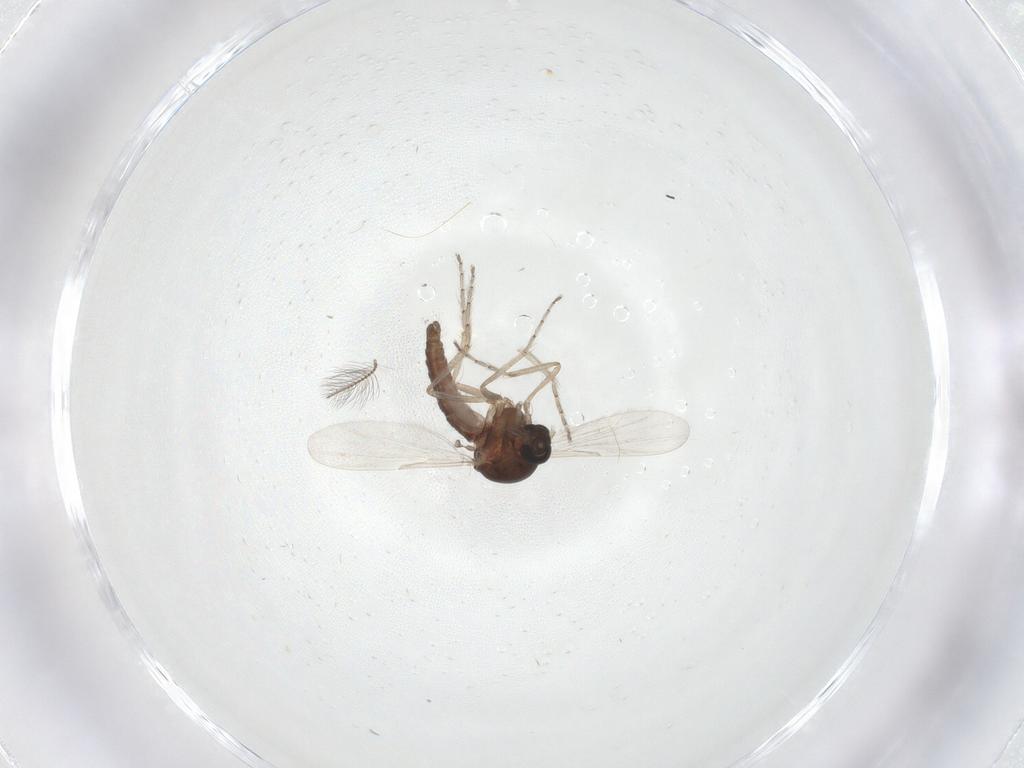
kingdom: Animalia
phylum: Arthropoda
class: Insecta
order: Diptera
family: Ceratopogonidae
